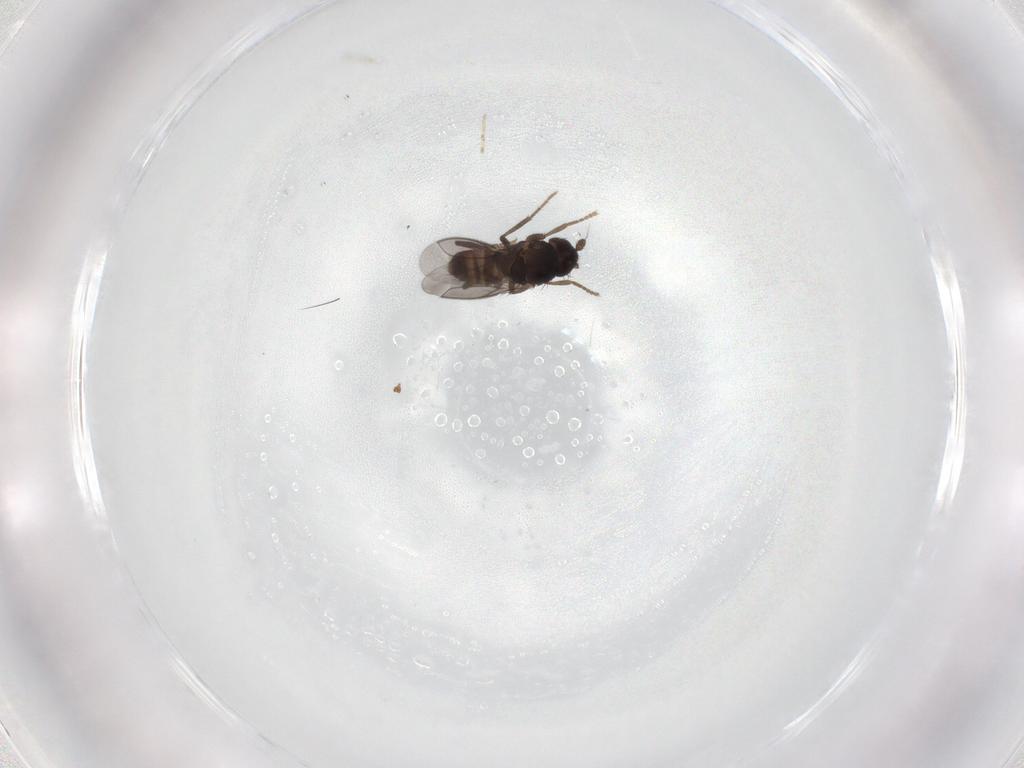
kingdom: Animalia
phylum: Arthropoda
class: Insecta
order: Diptera
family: Sphaeroceridae
